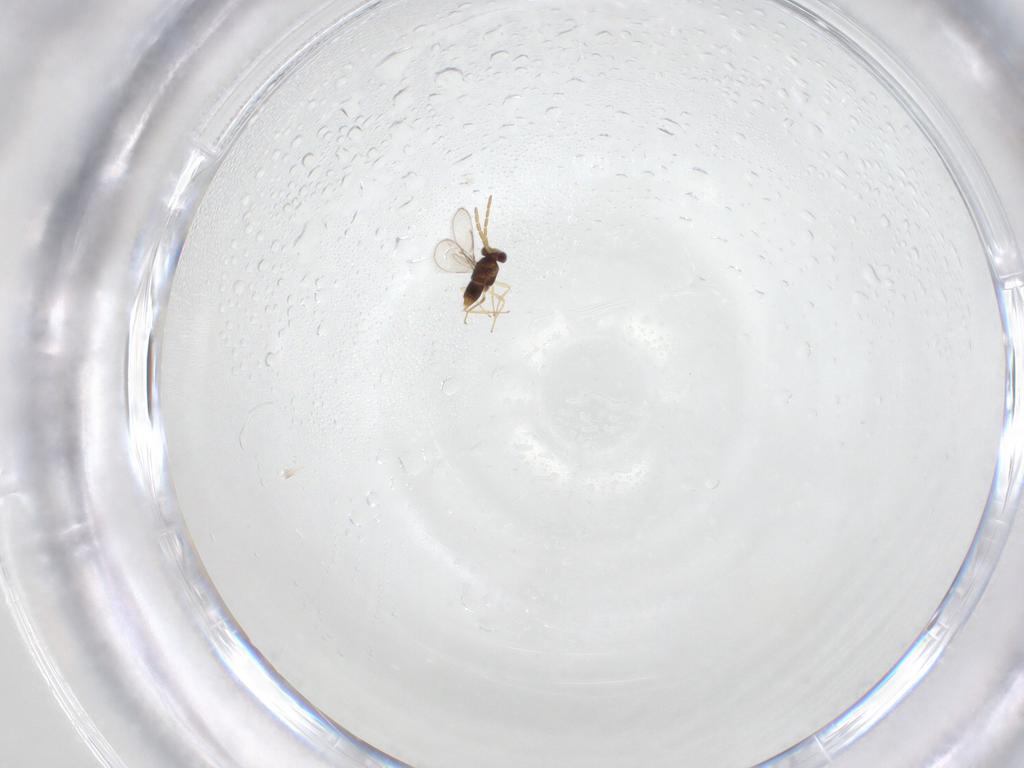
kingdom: Animalia
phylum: Arthropoda
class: Insecta
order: Hymenoptera
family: Aphelinidae
